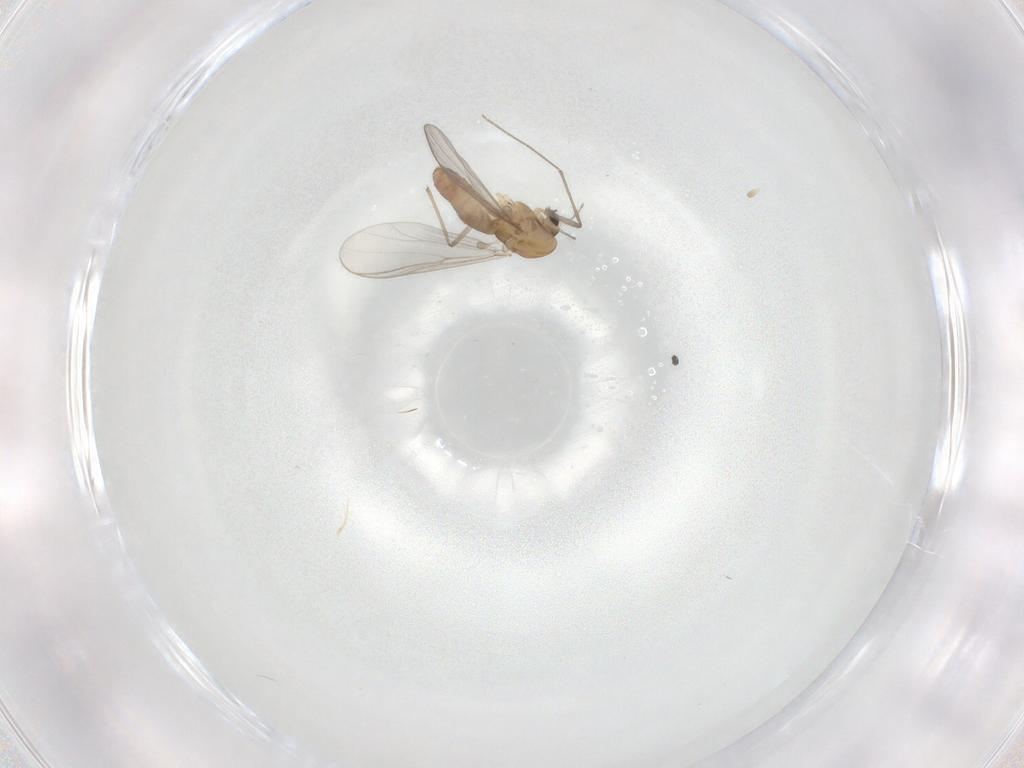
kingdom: Animalia
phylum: Arthropoda
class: Insecta
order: Diptera
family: Chironomidae
